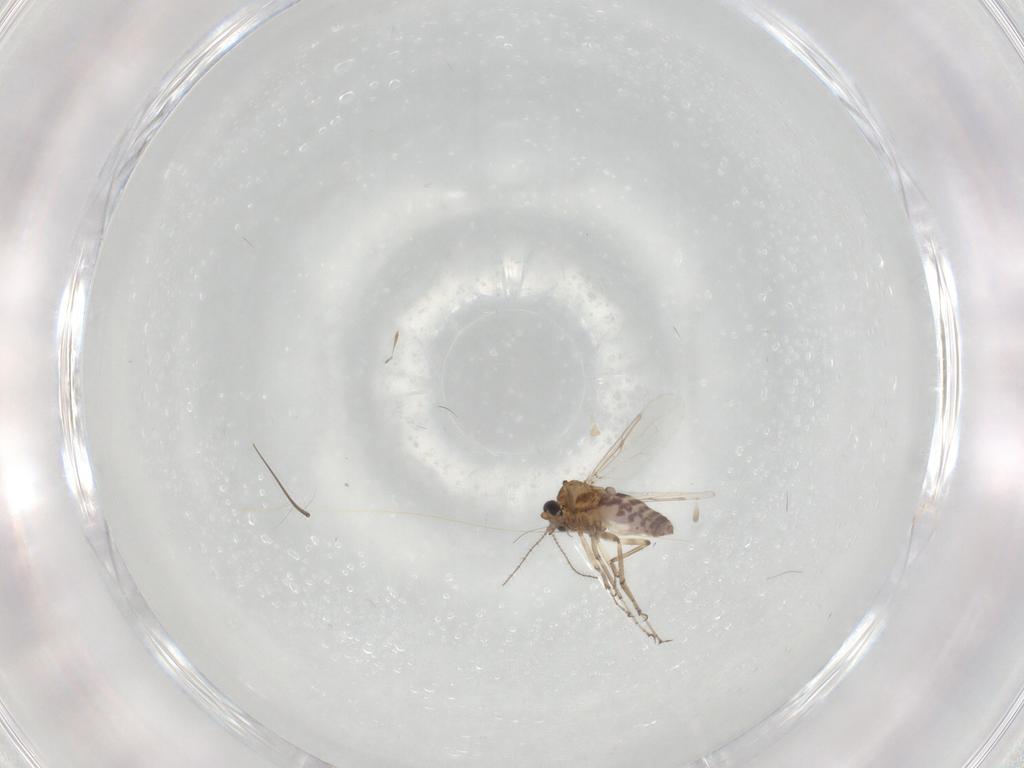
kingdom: Animalia
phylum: Arthropoda
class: Insecta
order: Diptera
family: Ceratopogonidae
